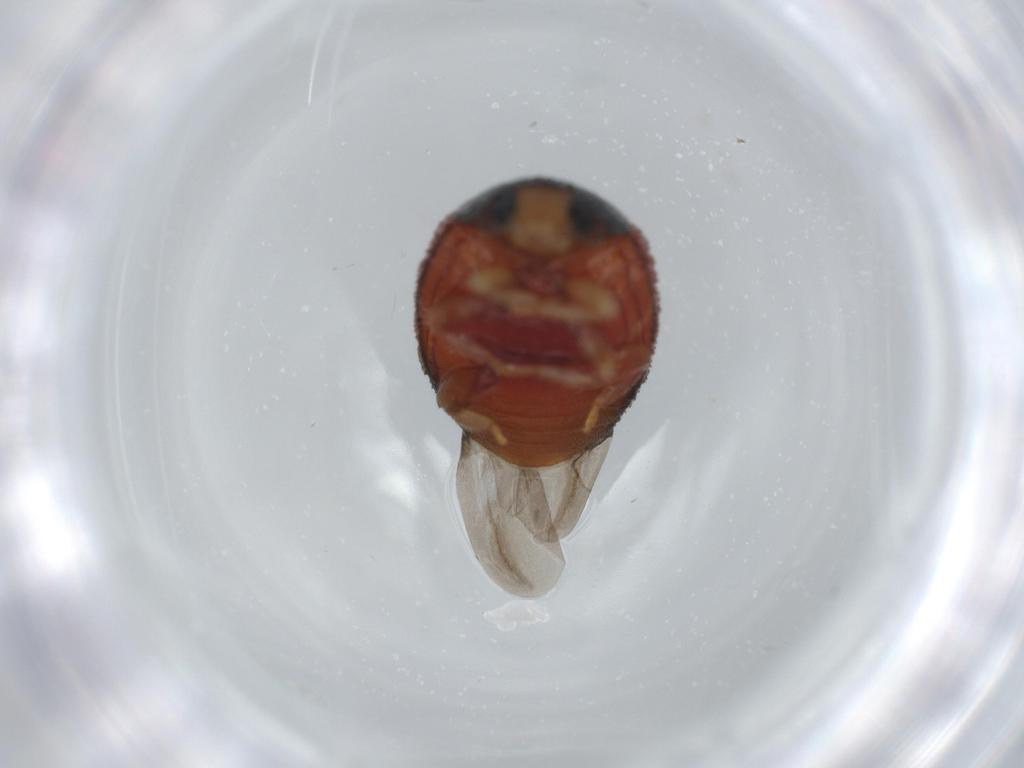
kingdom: Animalia
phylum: Arthropoda
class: Insecta
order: Coleoptera
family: Coccinellidae
